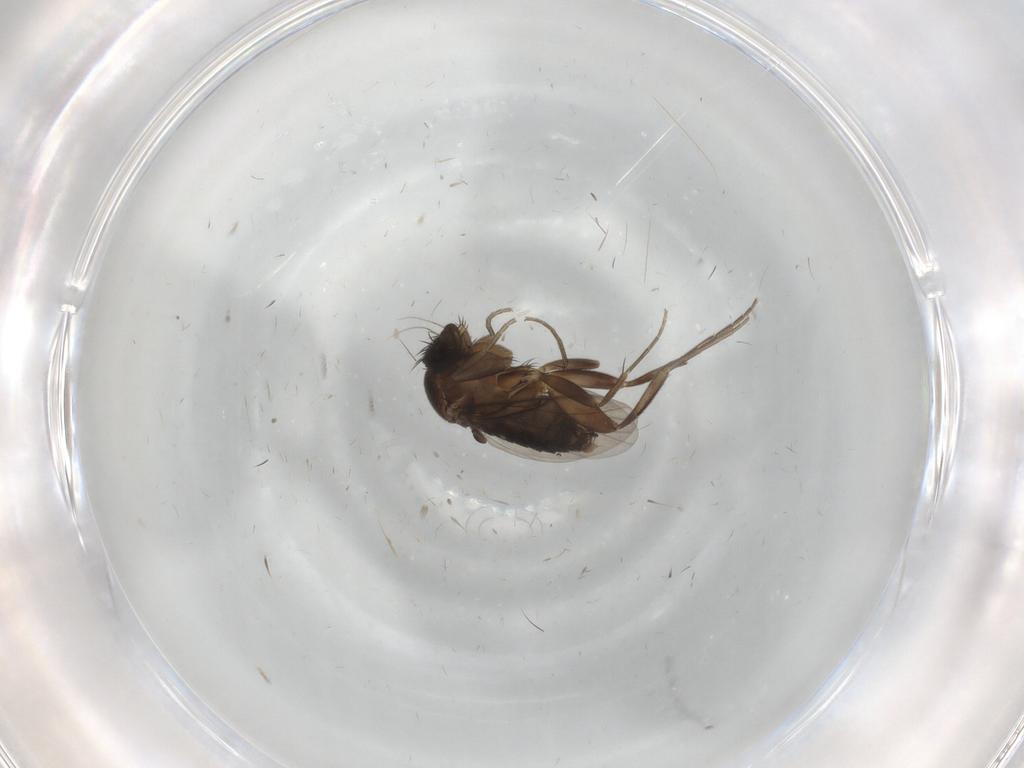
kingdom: Animalia
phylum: Arthropoda
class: Insecta
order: Diptera
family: Phoridae
